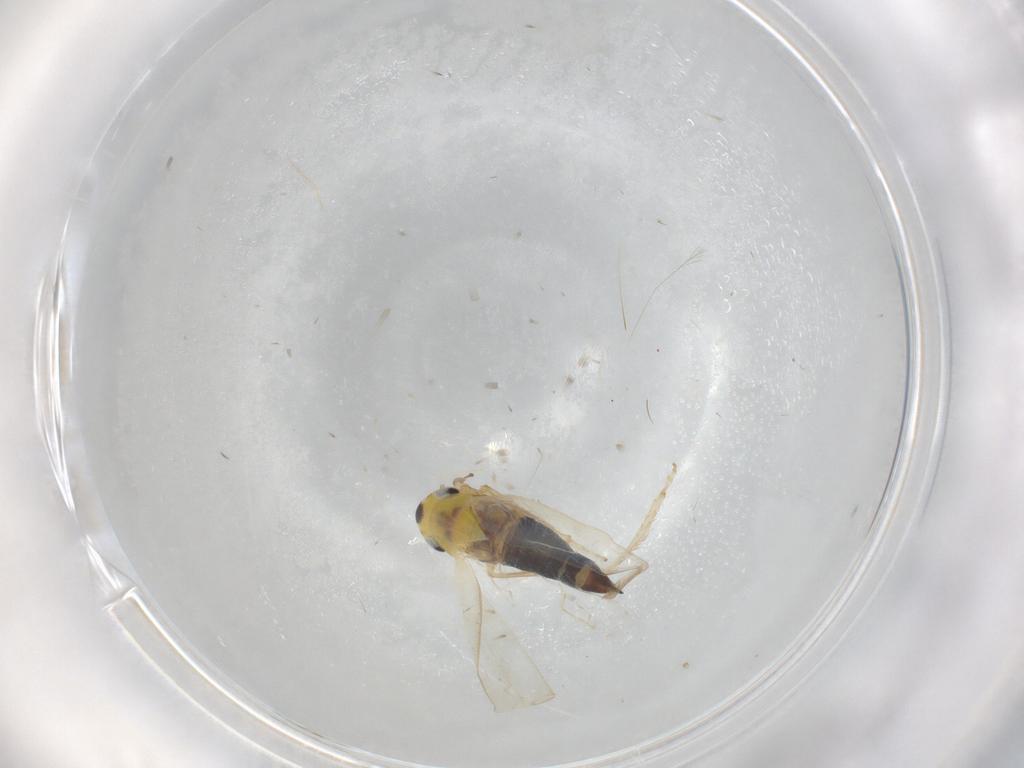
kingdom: Animalia
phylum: Arthropoda
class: Insecta
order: Hemiptera
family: Cicadellidae
